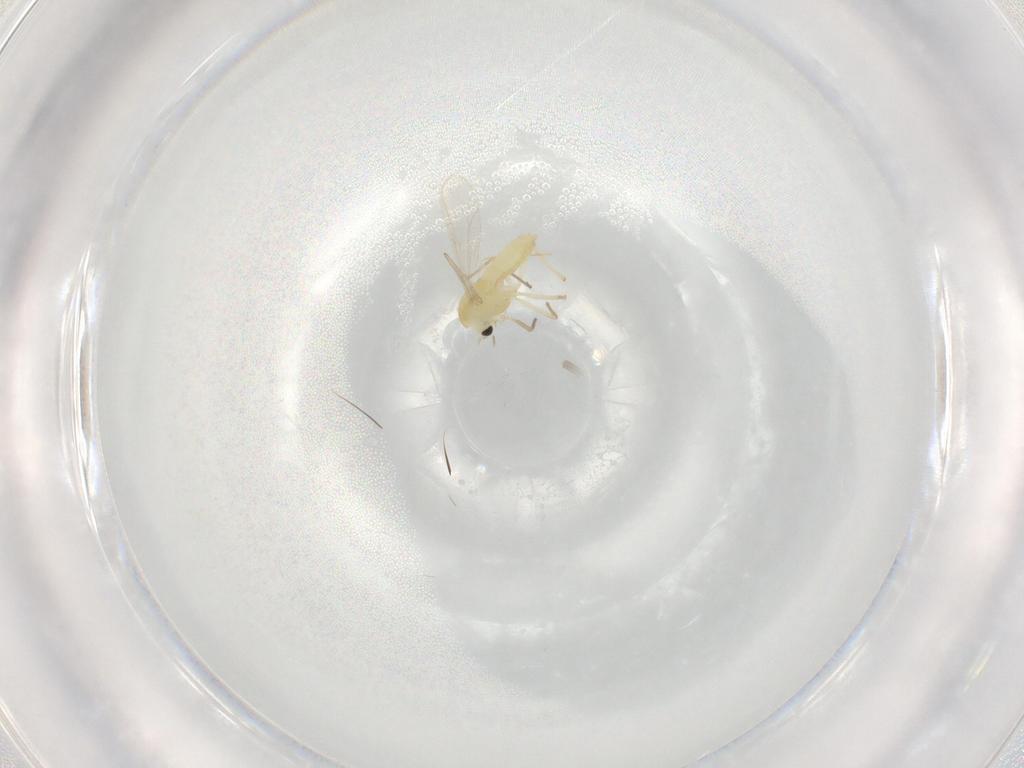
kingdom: Animalia
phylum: Arthropoda
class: Insecta
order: Diptera
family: Chironomidae
